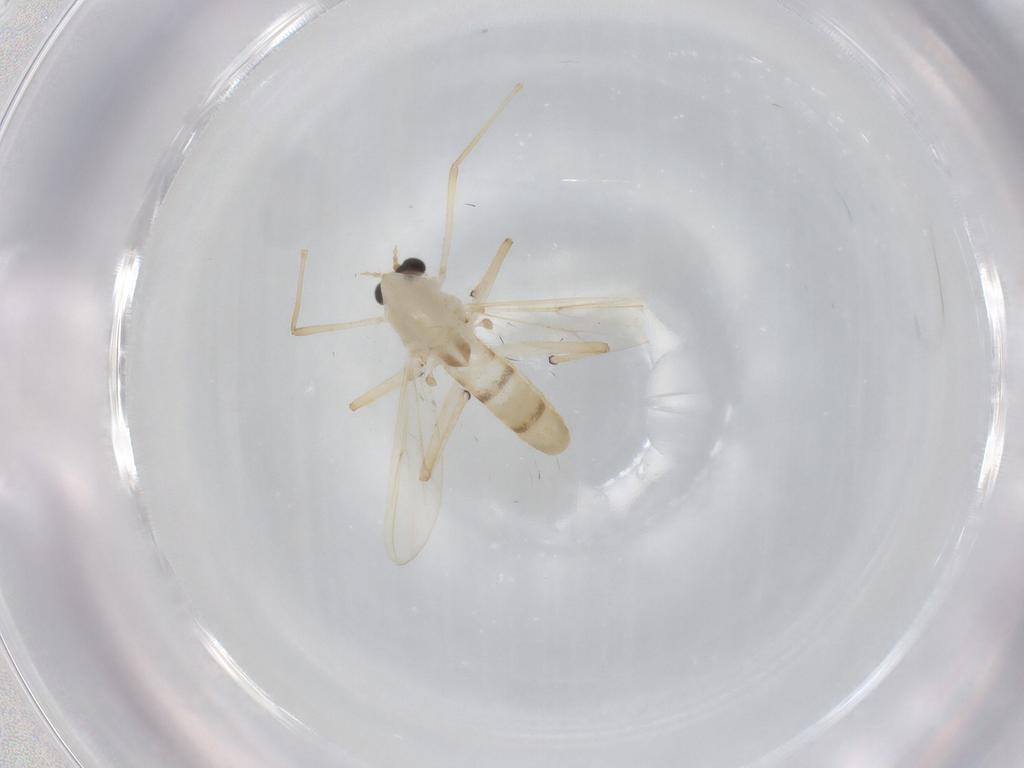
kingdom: Animalia
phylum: Arthropoda
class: Insecta
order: Diptera
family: Chironomidae
